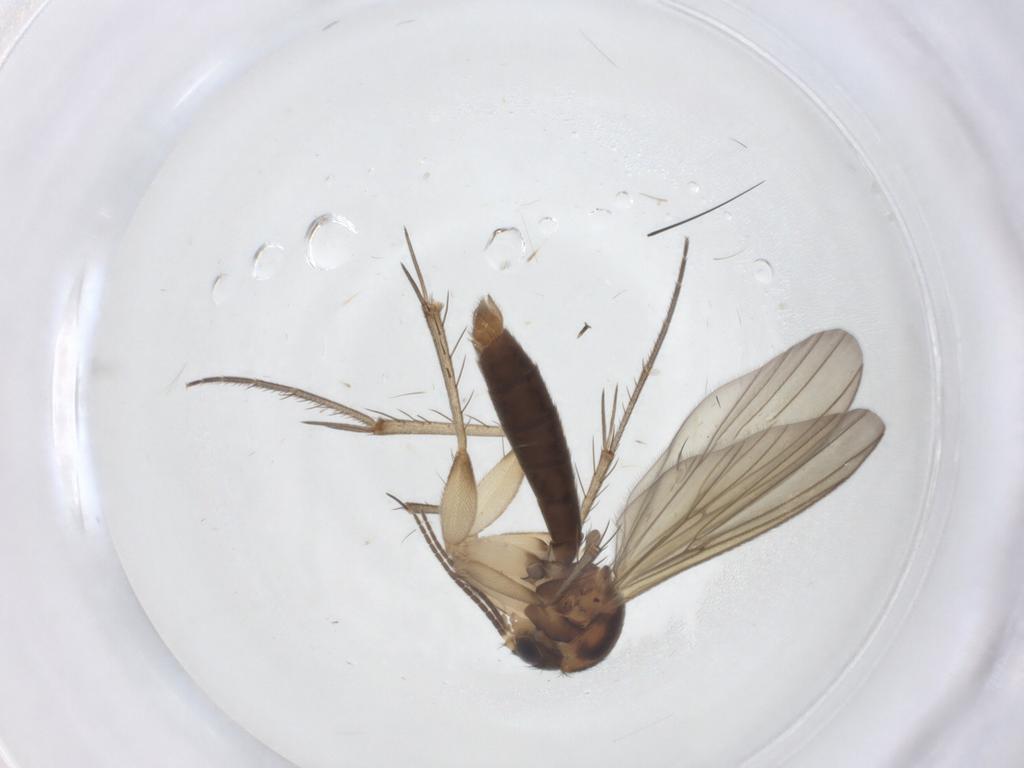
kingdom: Animalia
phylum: Arthropoda
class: Insecta
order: Diptera
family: Mycetophilidae
